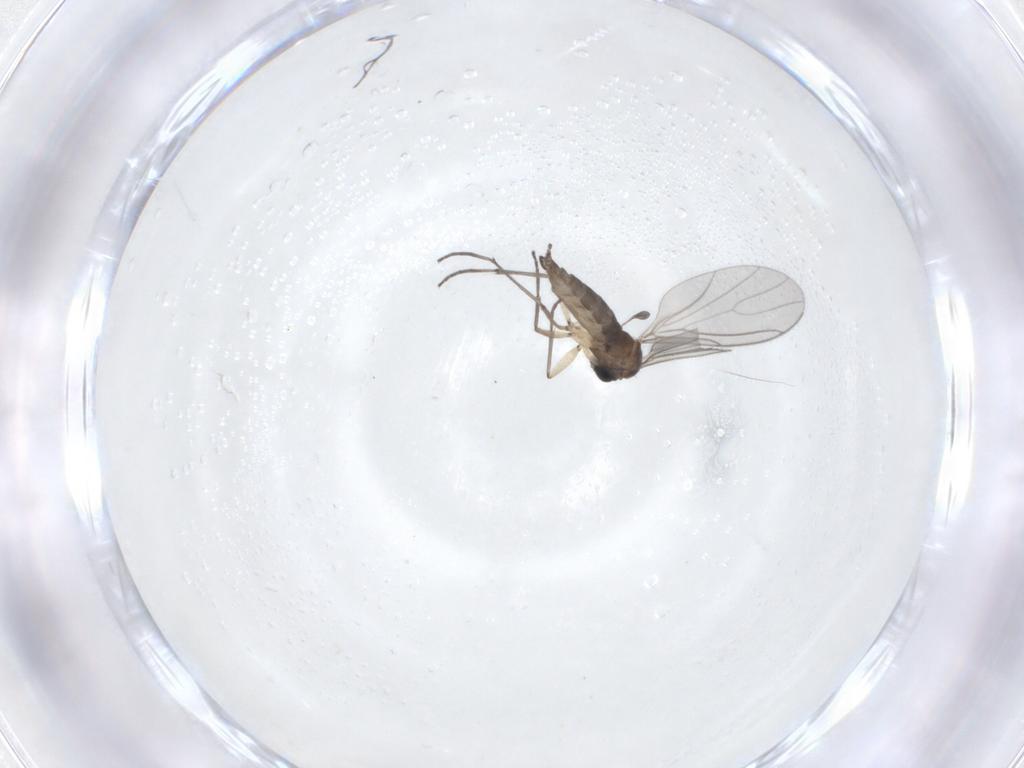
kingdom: Animalia
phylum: Arthropoda
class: Insecta
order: Diptera
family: Sciaridae
